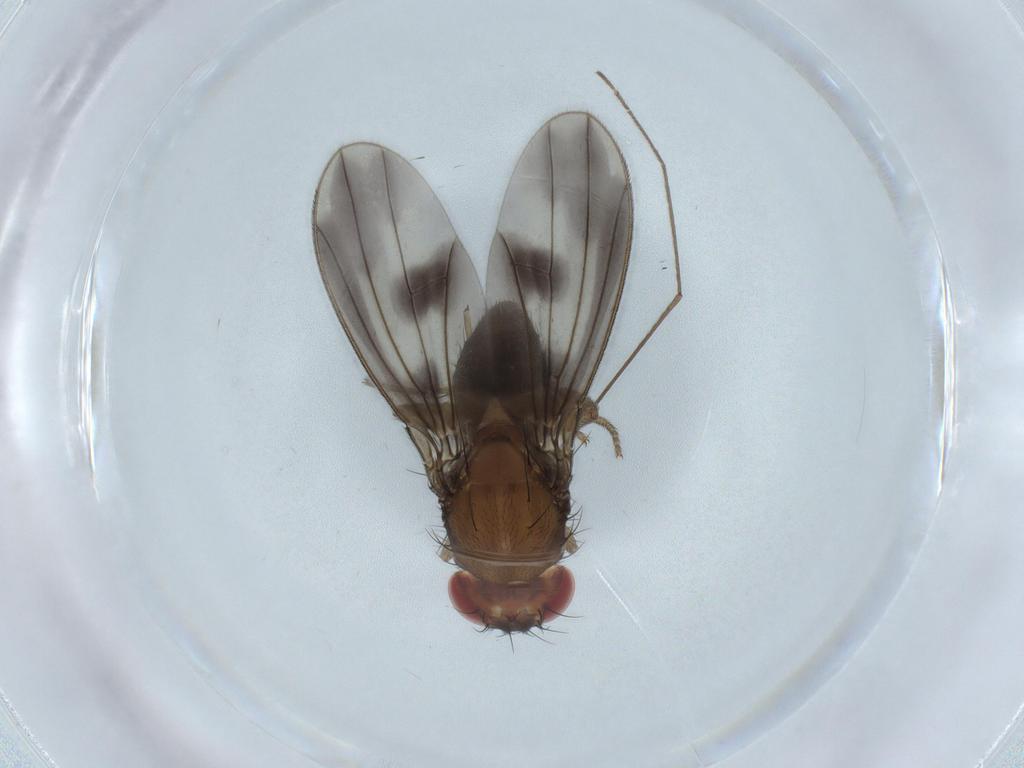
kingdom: Animalia
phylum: Arthropoda
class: Insecta
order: Diptera
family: Drosophilidae
